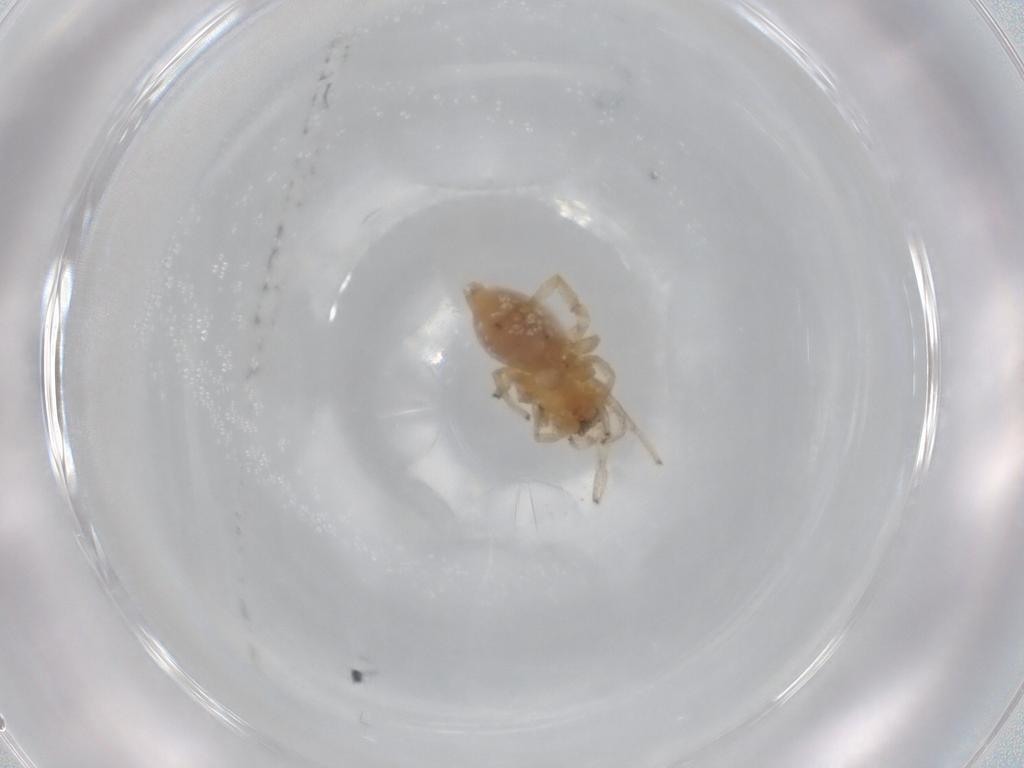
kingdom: Animalia
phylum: Arthropoda
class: Arachnida
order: Araneae
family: Cheiracanthiidae
